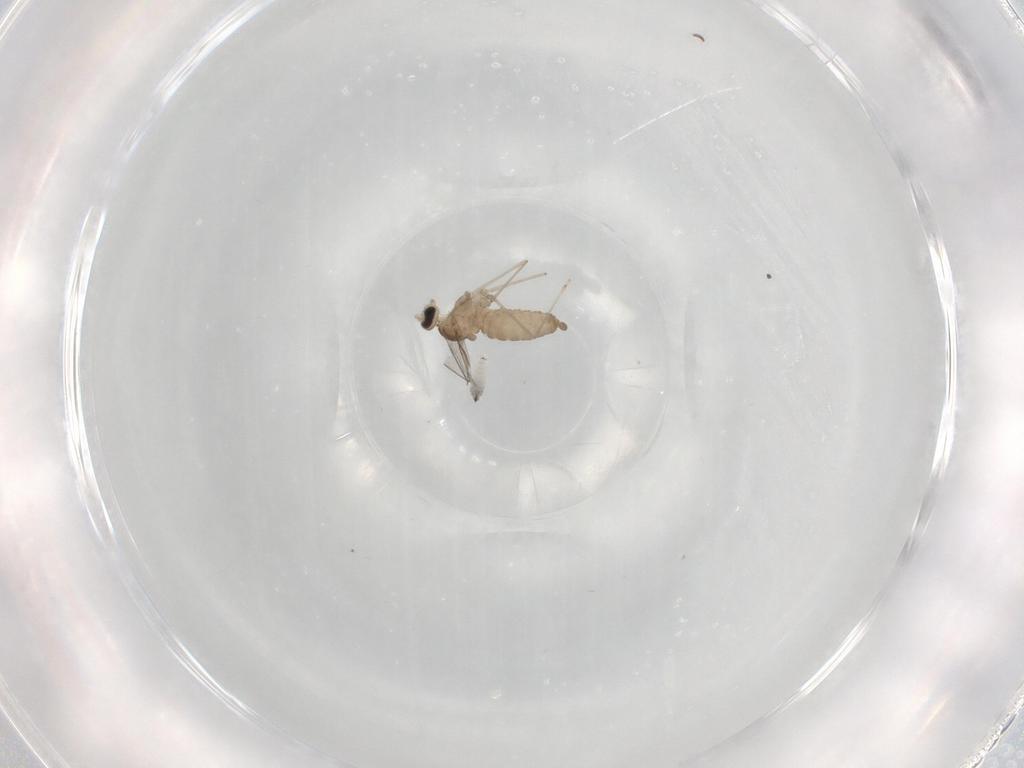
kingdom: Animalia
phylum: Arthropoda
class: Insecta
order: Diptera
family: Cecidomyiidae
